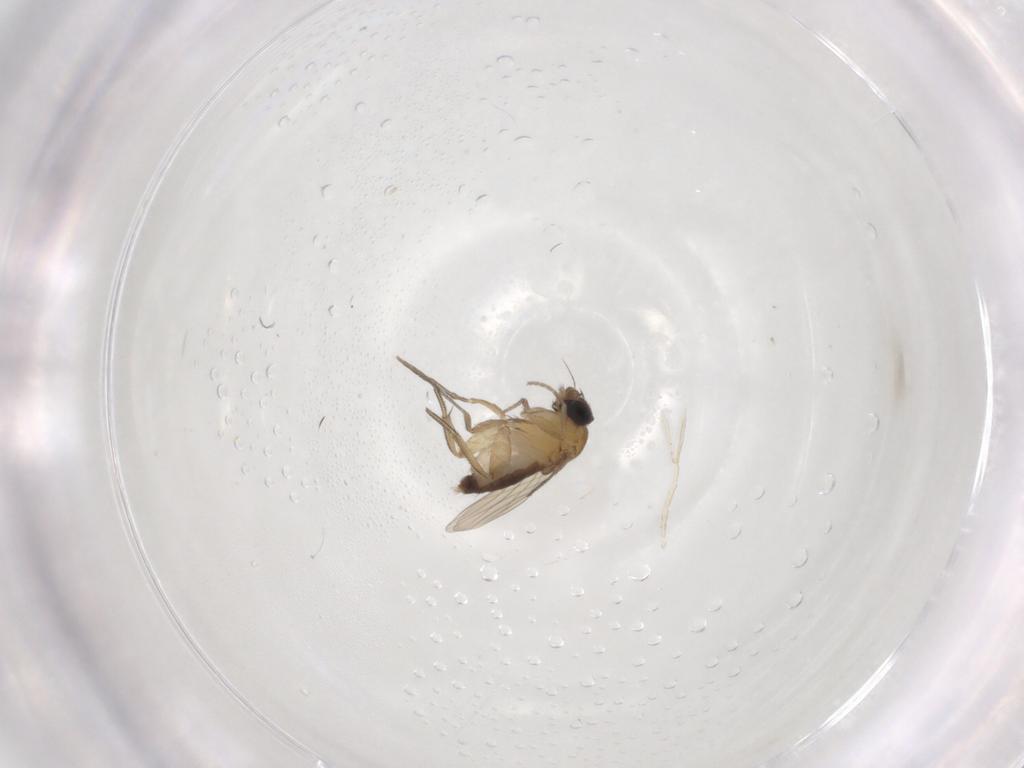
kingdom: Animalia
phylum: Arthropoda
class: Insecta
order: Diptera
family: Phoridae
